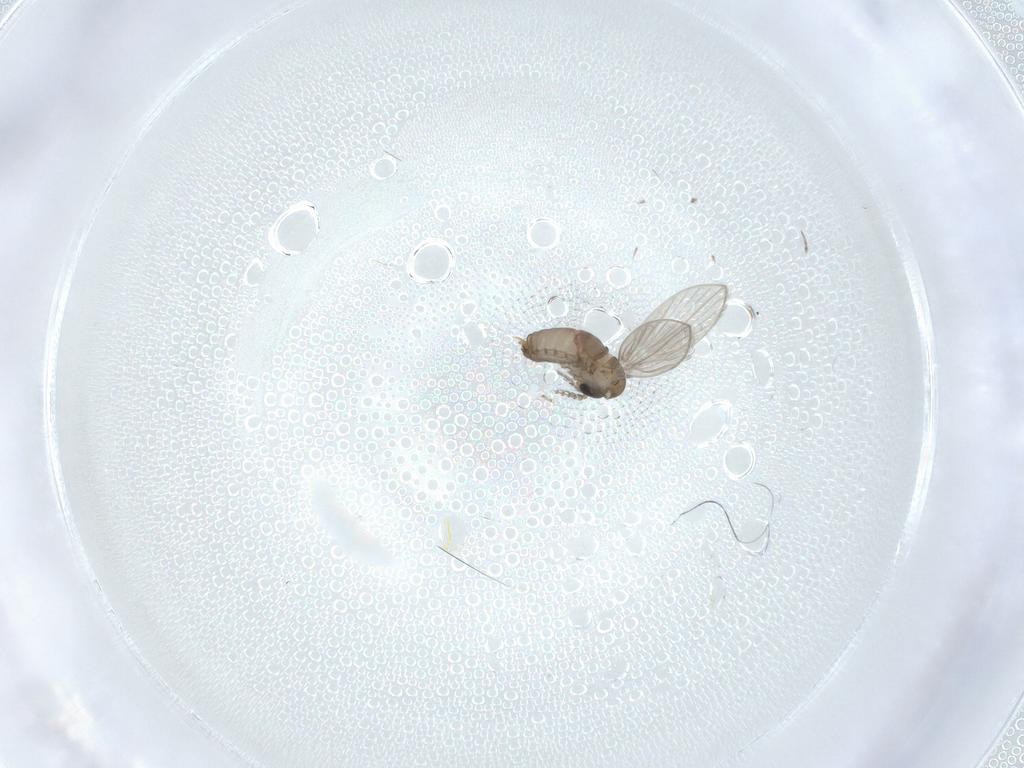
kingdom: Animalia
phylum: Arthropoda
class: Insecta
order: Diptera
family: Psychodidae
